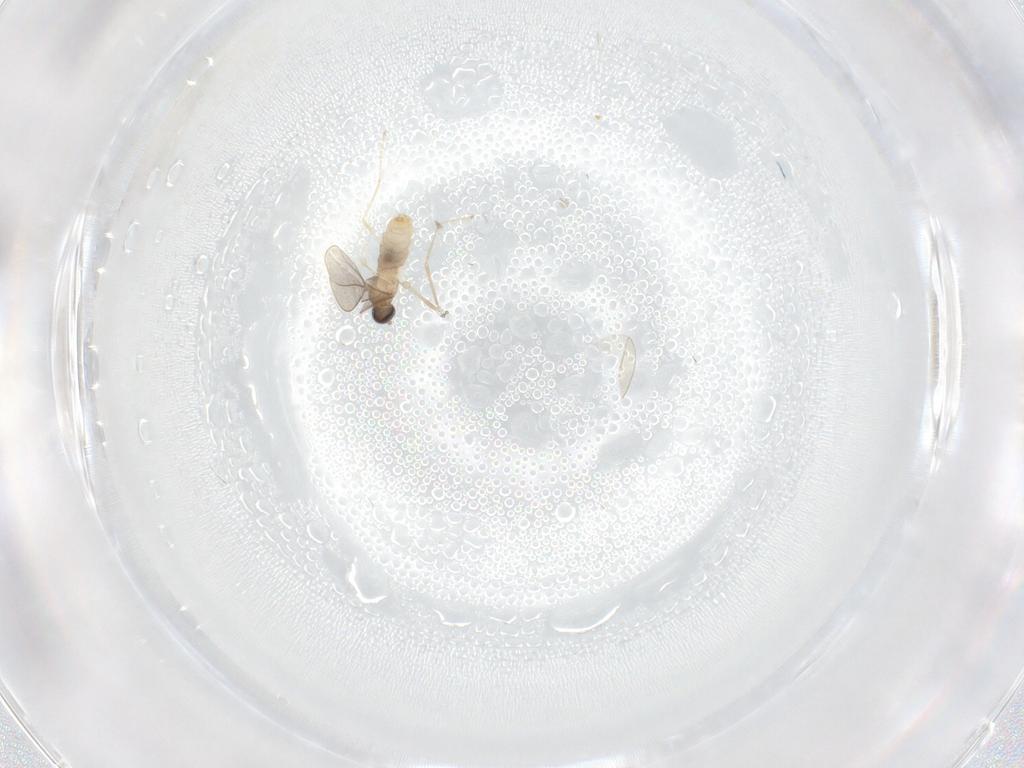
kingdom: Animalia
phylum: Arthropoda
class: Insecta
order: Diptera
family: Cecidomyiidae
